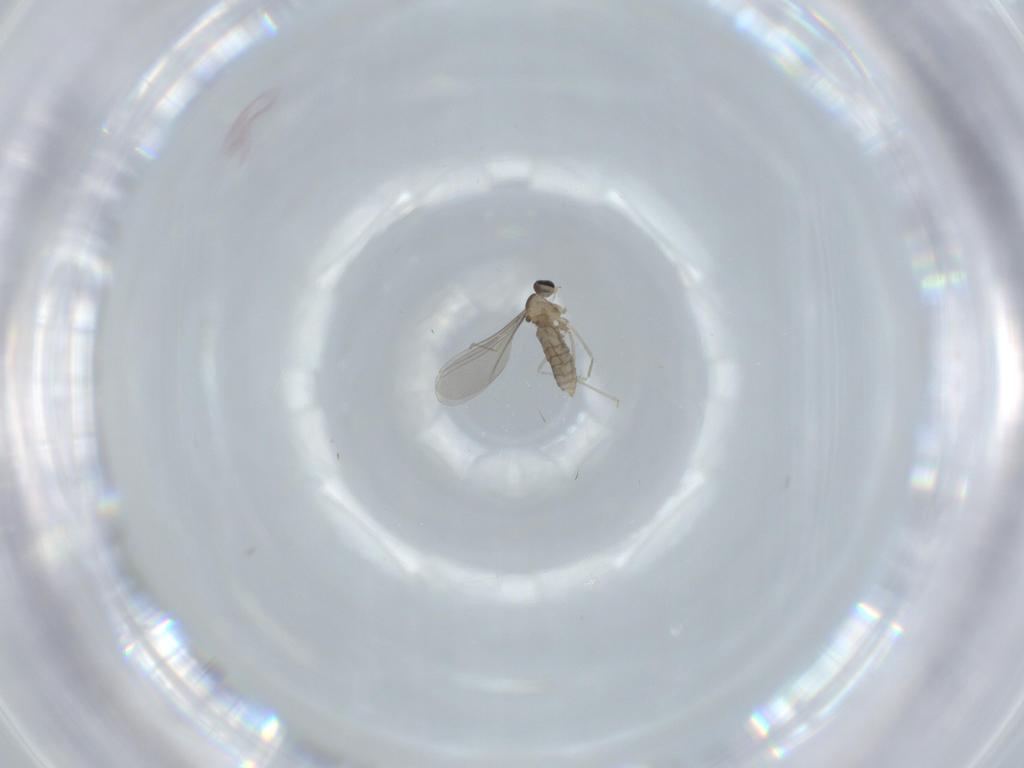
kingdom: Animalia
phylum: Arthropoda
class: Insecta
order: Diptera
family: Cecidomyiidae
